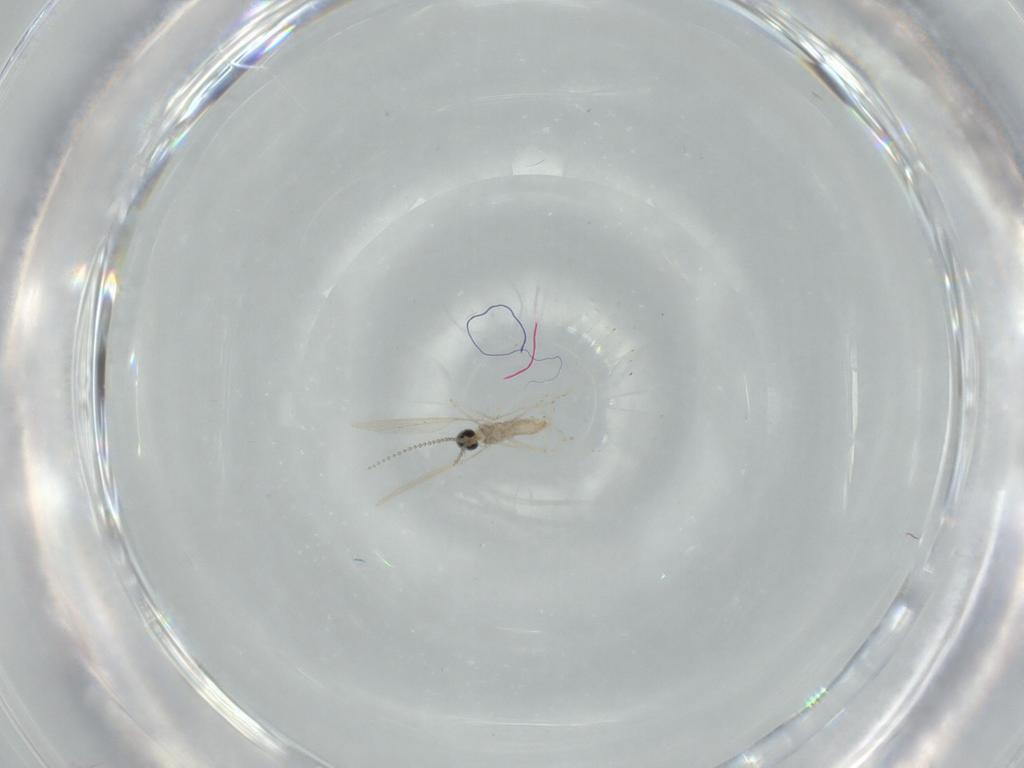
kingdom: Animalia
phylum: Arthropoda
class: Insecta
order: Diptera
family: Cecidomyiidae
